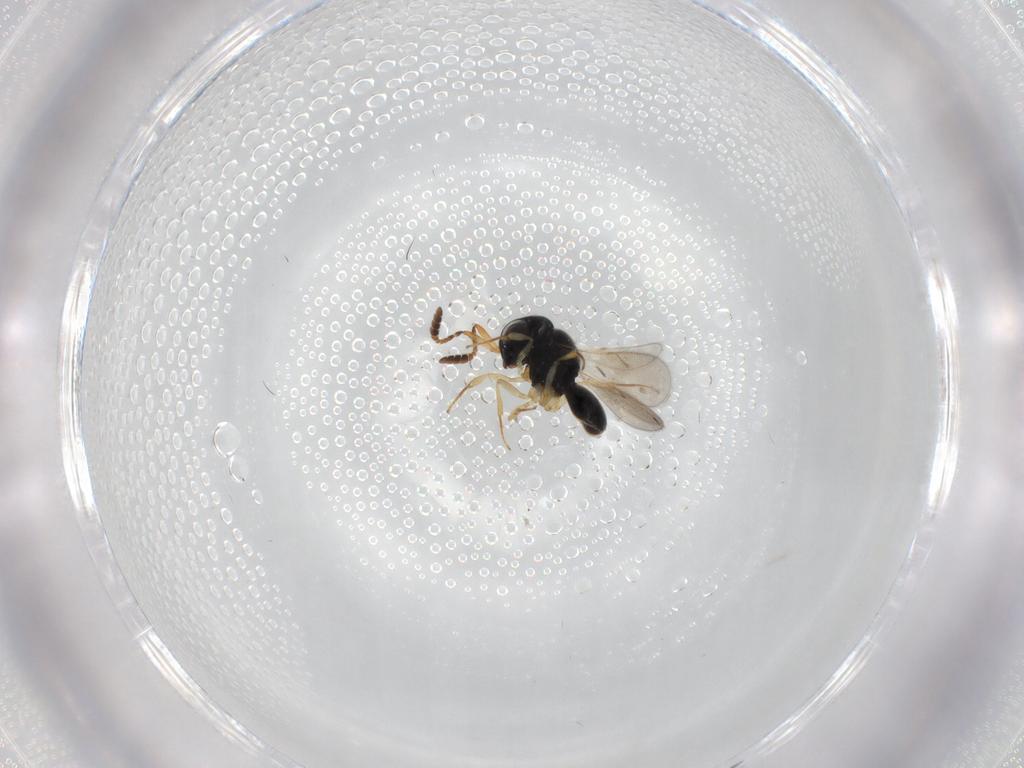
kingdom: Animalia
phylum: Arthropoda
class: Insecta
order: Hymenoptera
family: Scelionidae
